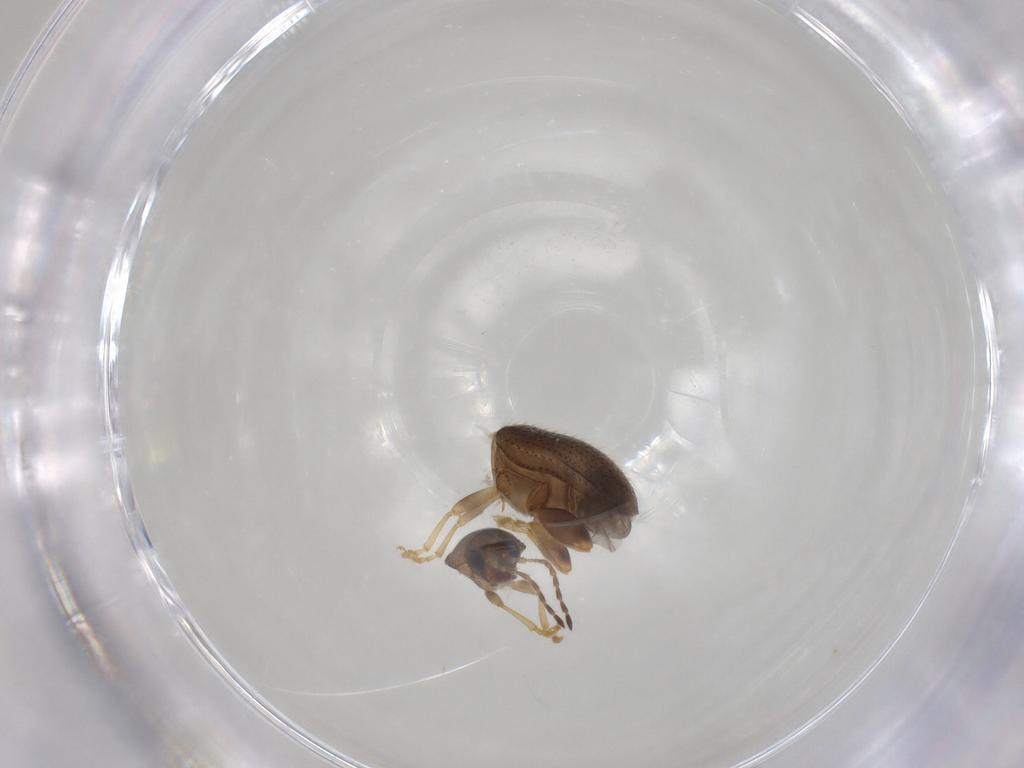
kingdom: Animalia
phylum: Arthropoda
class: Insecta
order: Coleoptera
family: Chrysomelidae
